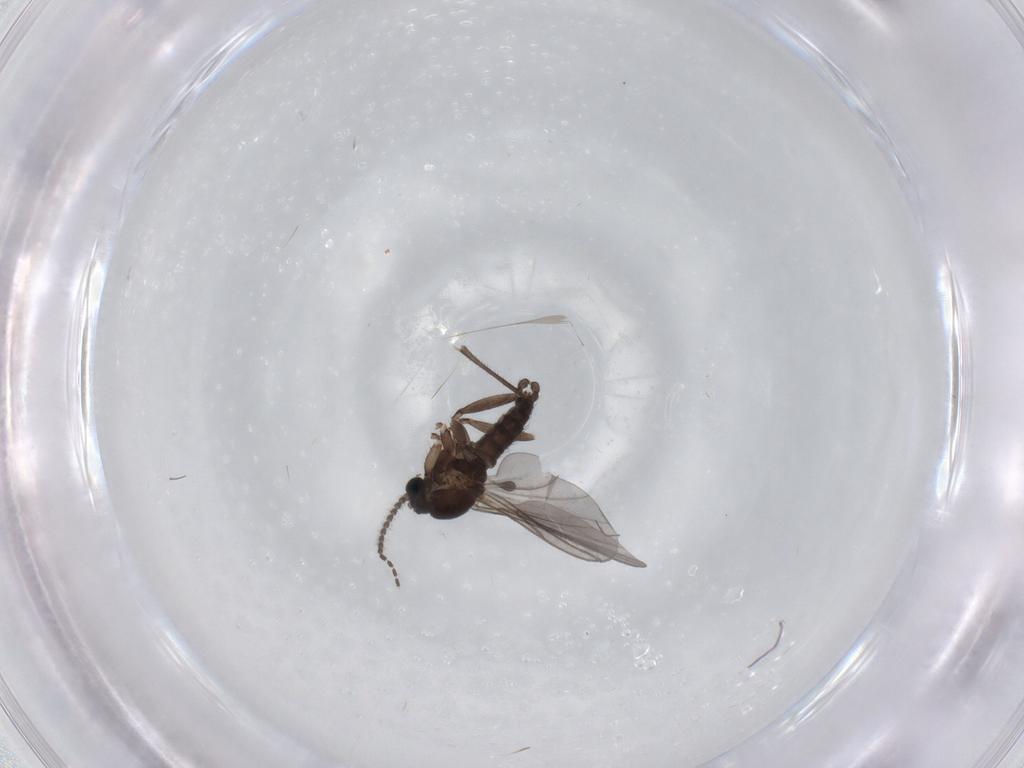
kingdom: Animalia
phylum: Arthropoda
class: Insecta
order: Diptera
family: Sciaridae
